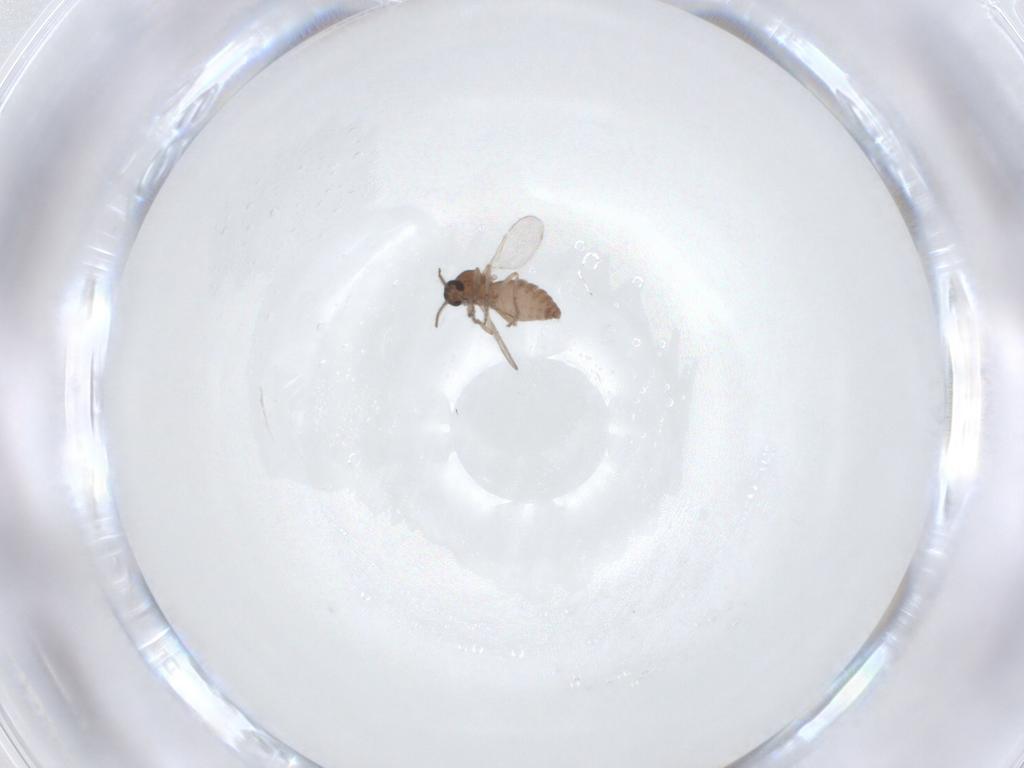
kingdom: Animalia
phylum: Arthropoda
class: Insecta
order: Diptera
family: Ceratopogonidae
